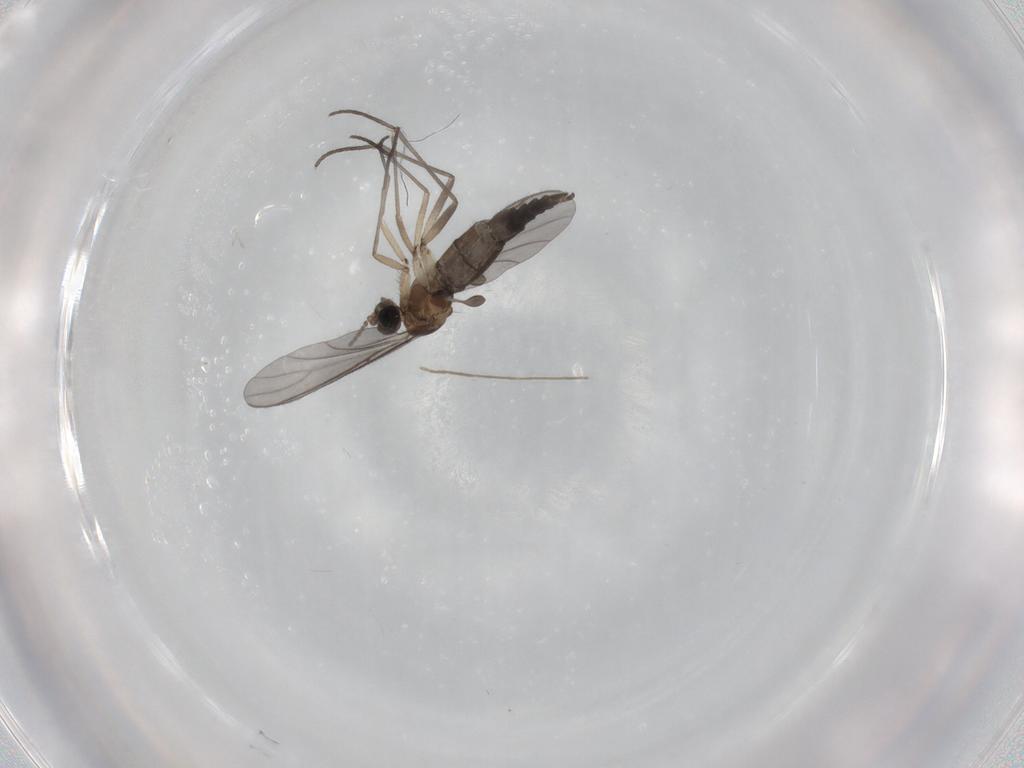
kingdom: Animalia
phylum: Arthropoda
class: Insecta
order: Diptera
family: Sciaridae
